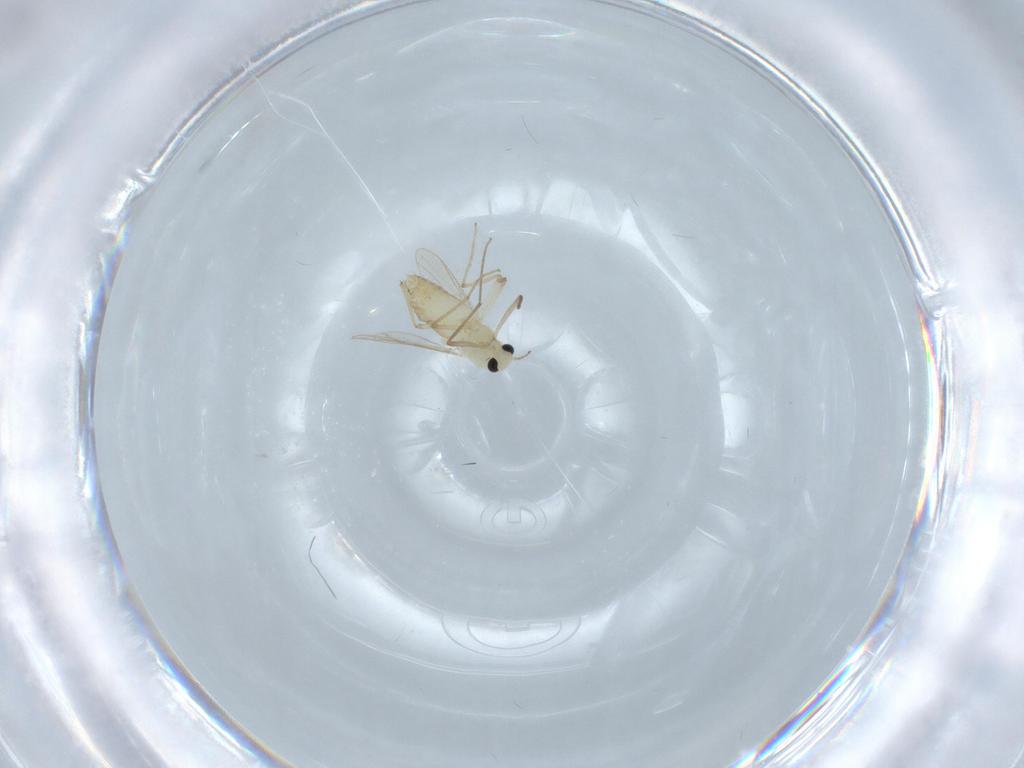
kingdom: Animalia
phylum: Arthropoda
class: Insecta
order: Diptera
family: Chironomidae
